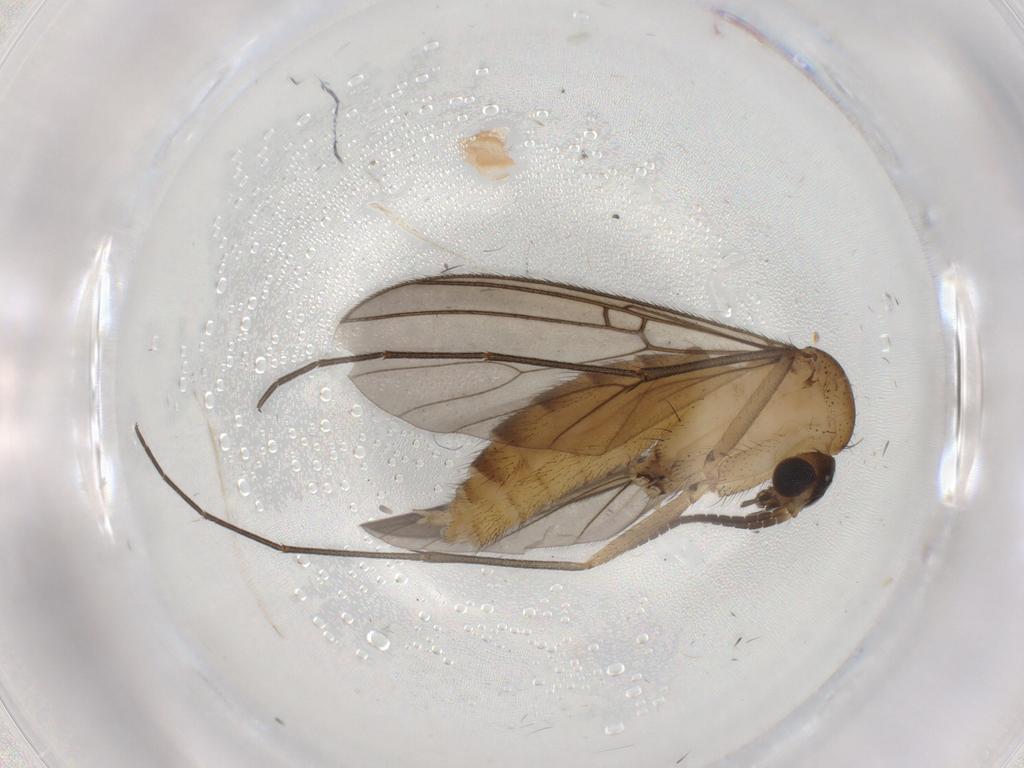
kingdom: Animalia
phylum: Arthropoda
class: Insecta
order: Diptera
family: Mycetophilidae
